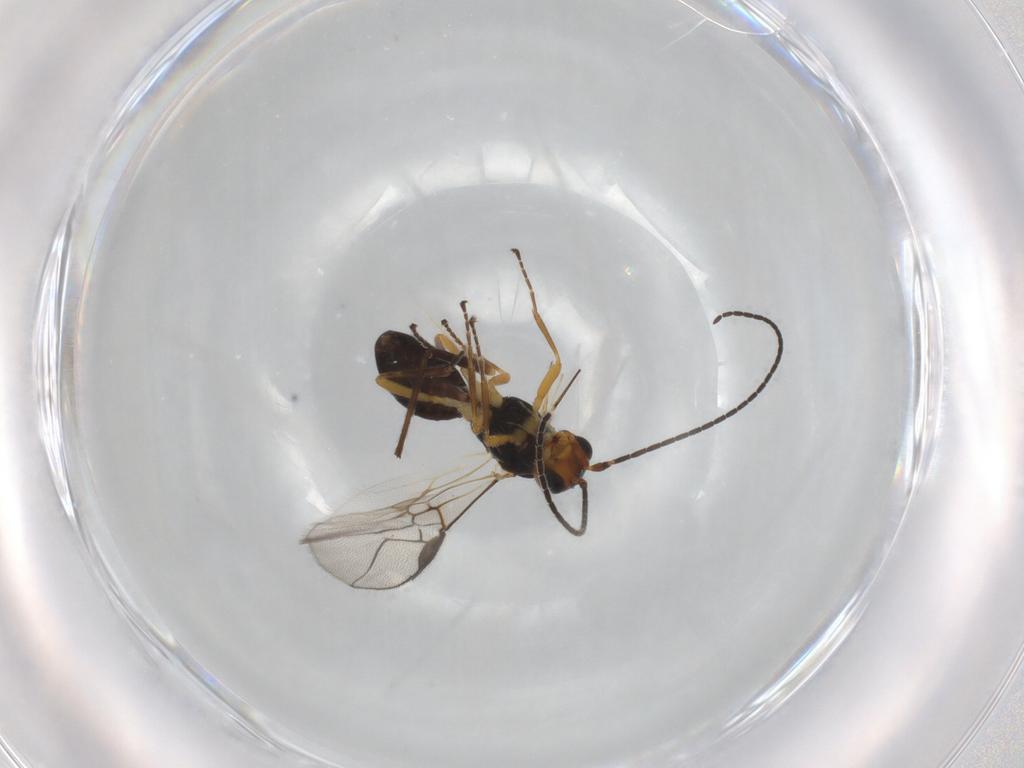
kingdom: Animalia
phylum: Arthropoda
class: Insecta
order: Hymenoptera
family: Braconidae
